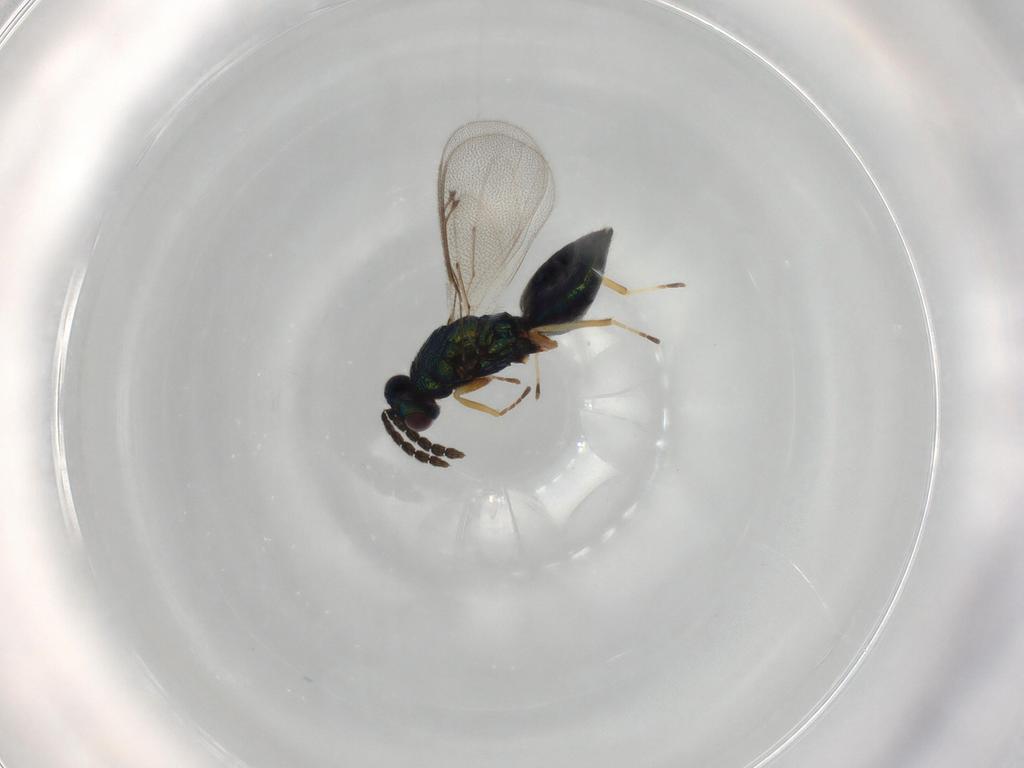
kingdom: Animalia
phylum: Arthropoda
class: Insecta
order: Hymenoptera
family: Eulophidae
